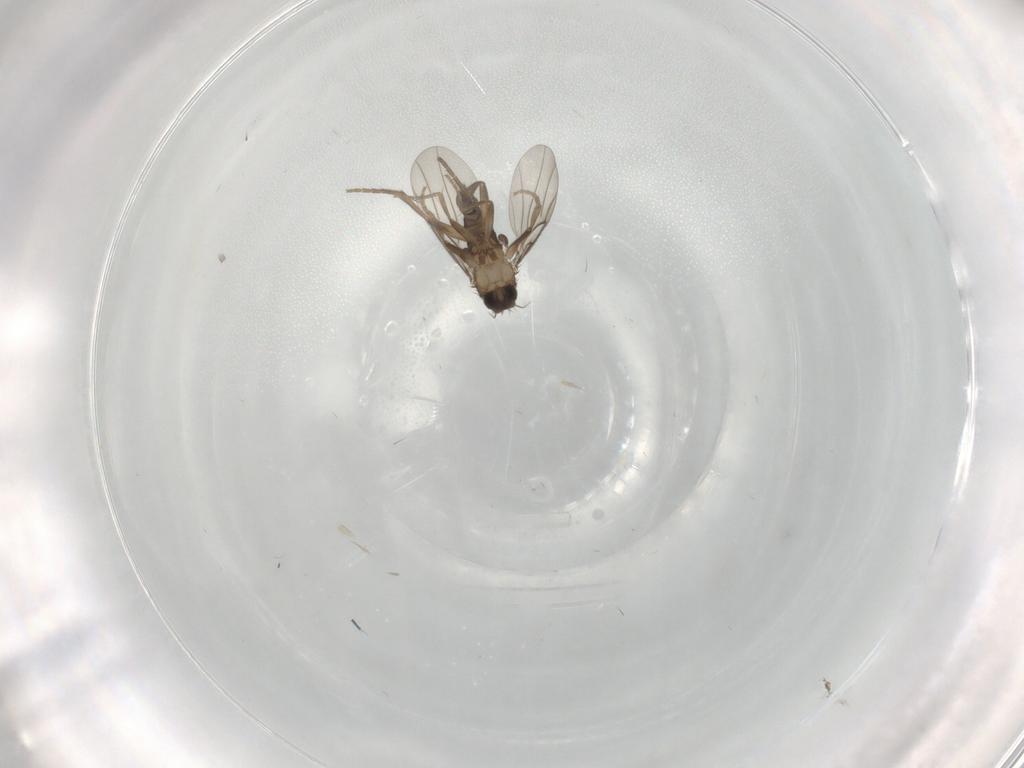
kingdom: Animalia
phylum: Arthropoda
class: Insecta
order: Diptera
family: Phoridae
